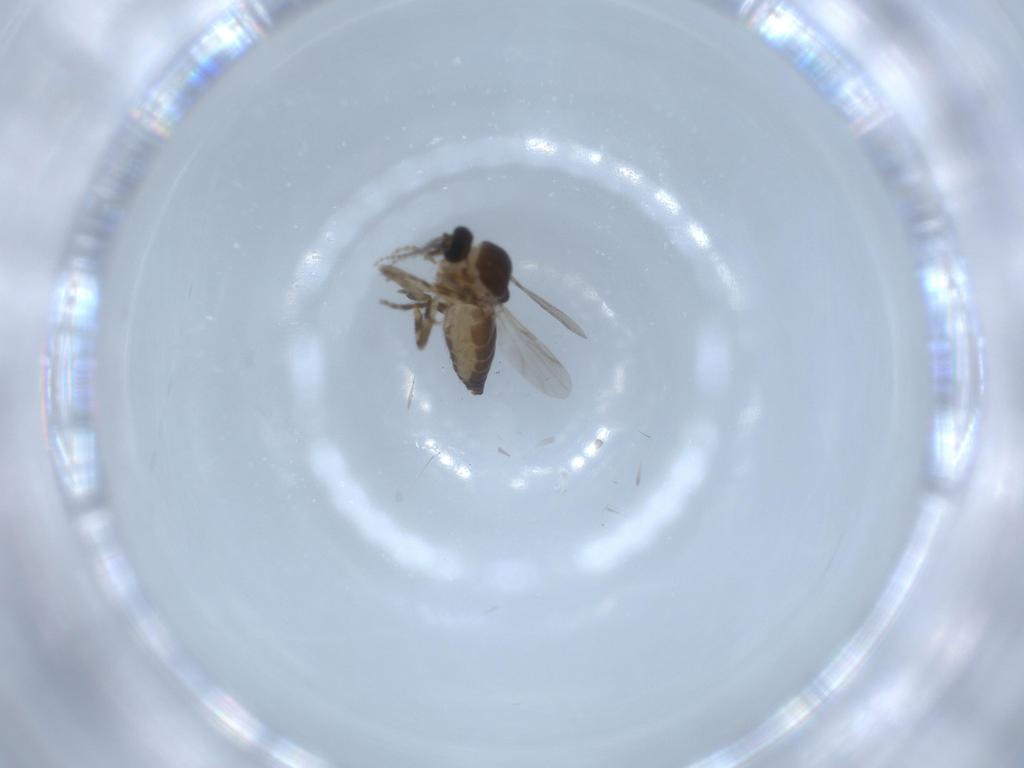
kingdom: Animalia
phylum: Arthropoda
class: Insecta
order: Diptera
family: Ceratopogonidae
